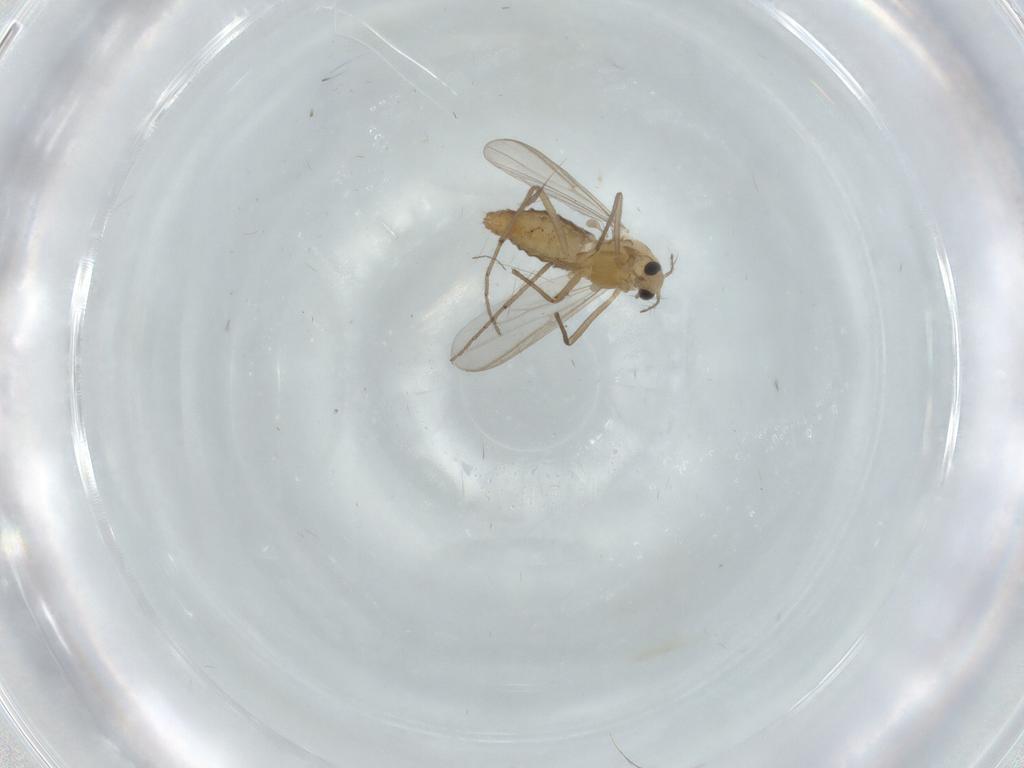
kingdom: Animalia
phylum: Arthropoda
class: Insecta
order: Diptera
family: Chironomidae
